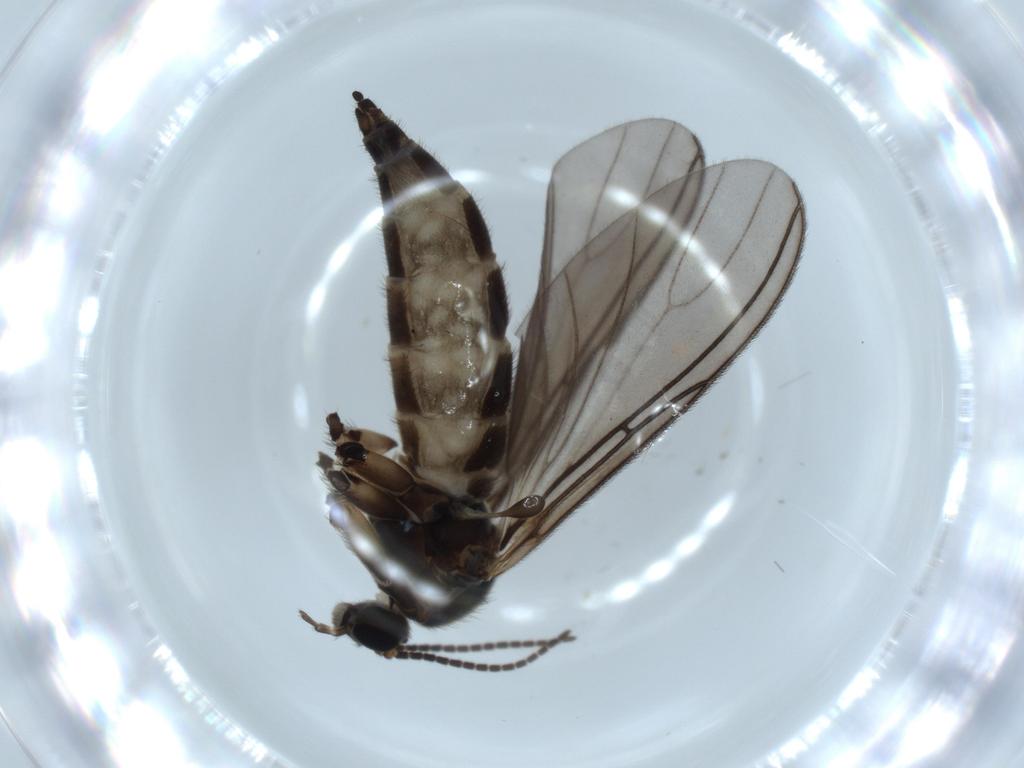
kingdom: Animalia
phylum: Arthropoda
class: Insecta
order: Diptera
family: Sciaridae
